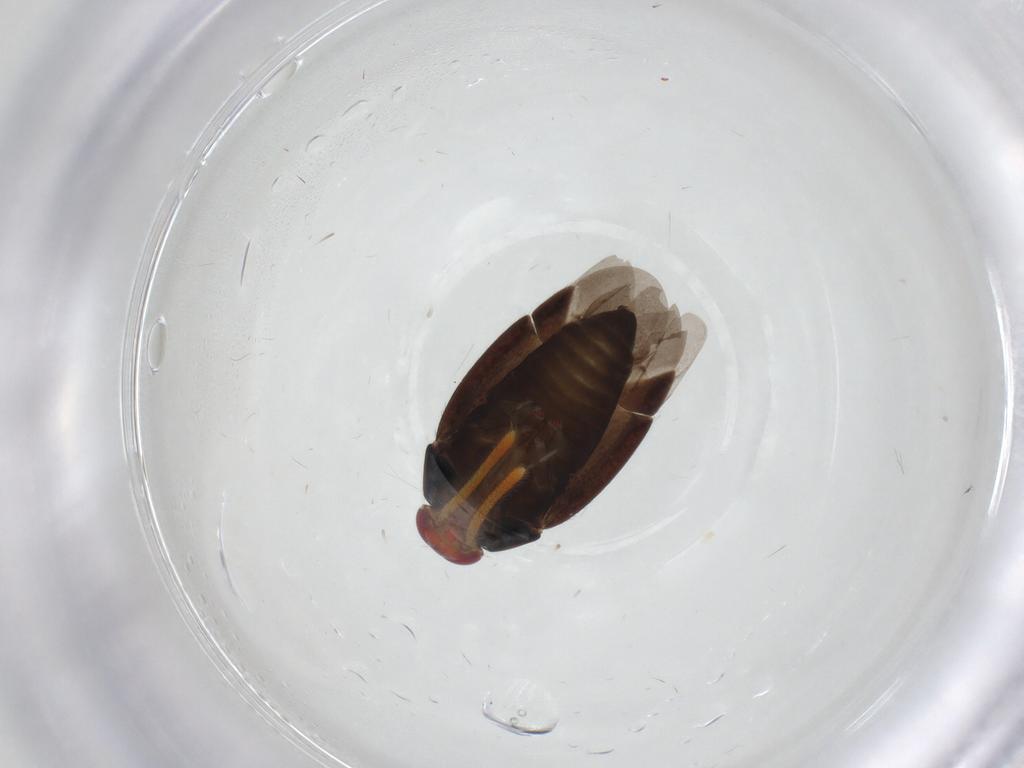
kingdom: Animalia
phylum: Arthropoda
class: Insecta
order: Hemiptera
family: Miridae
